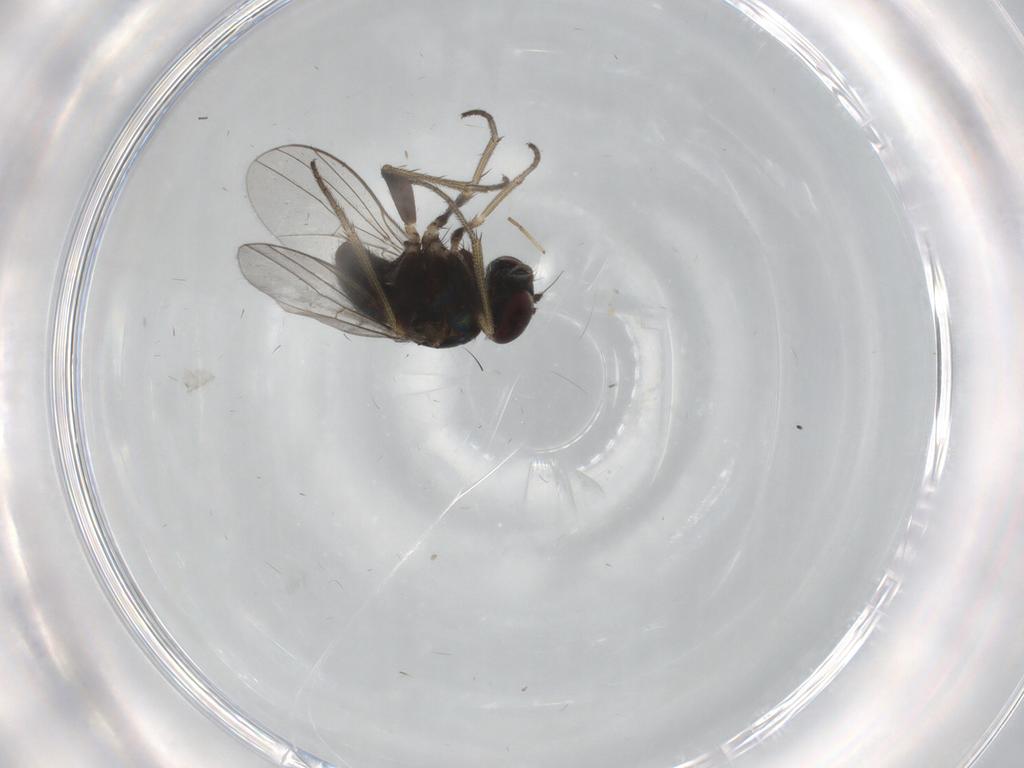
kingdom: Animalia
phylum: Arthropoda
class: Insecta
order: Diptera
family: Dolichopodidae
